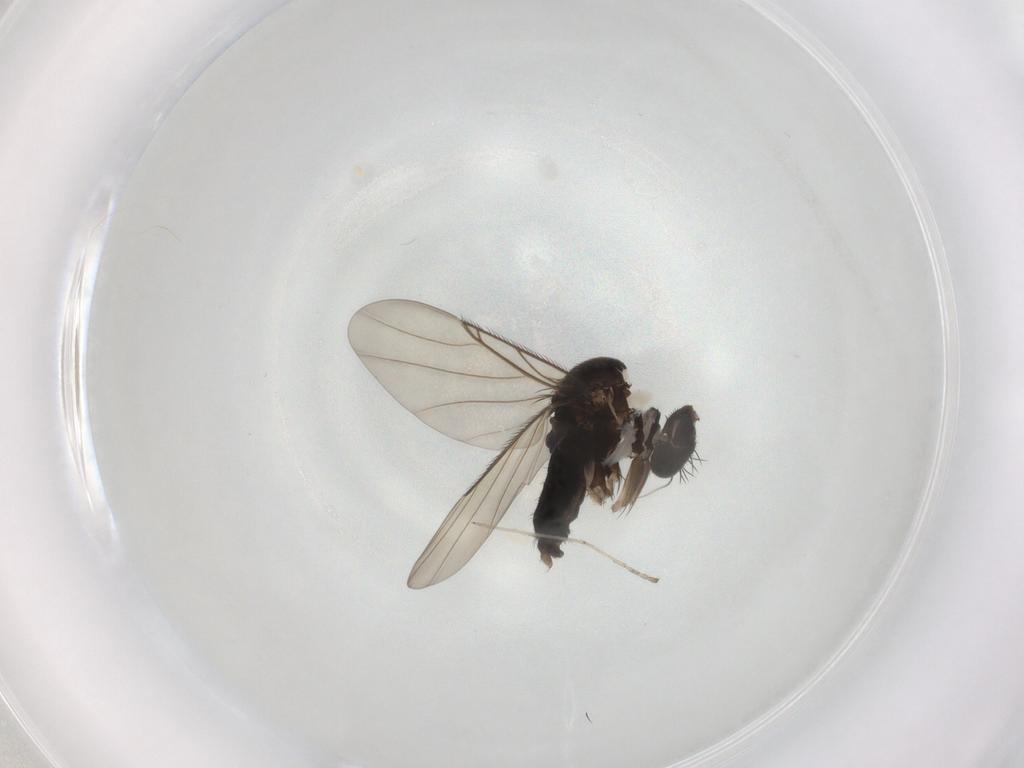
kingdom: Animalia
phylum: Arthropoda
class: Insecta
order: Diptera
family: Phoridae
